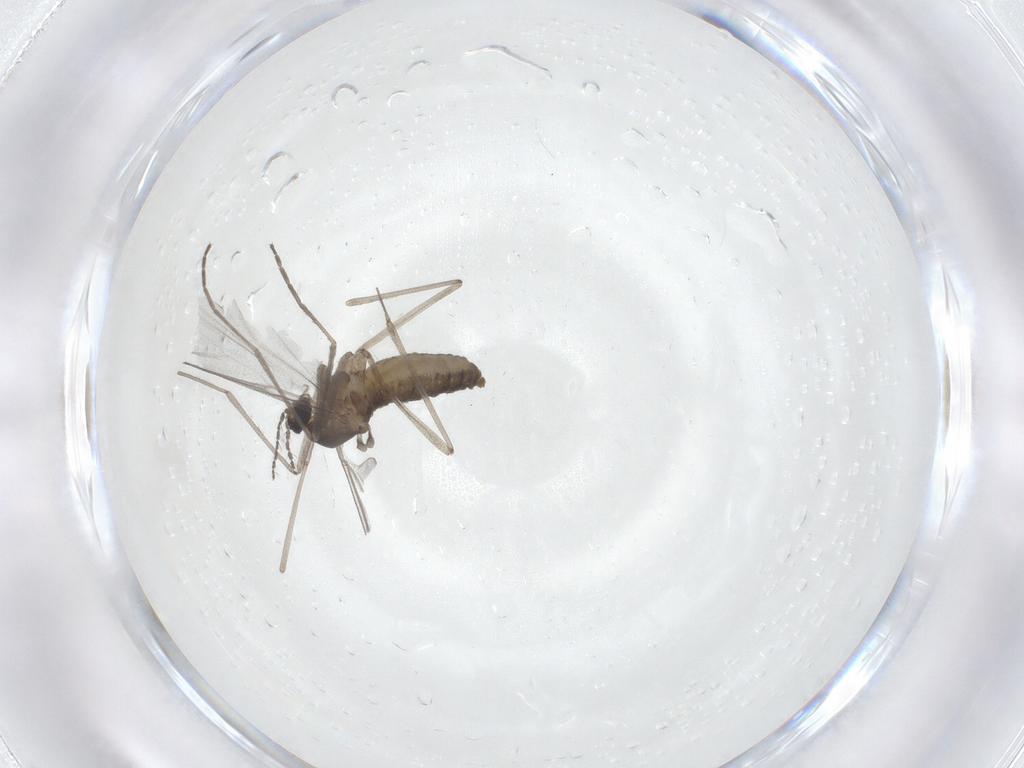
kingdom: Animalia
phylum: Arthropoda
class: Insecta
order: Diptera
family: Cecidomyiidae
